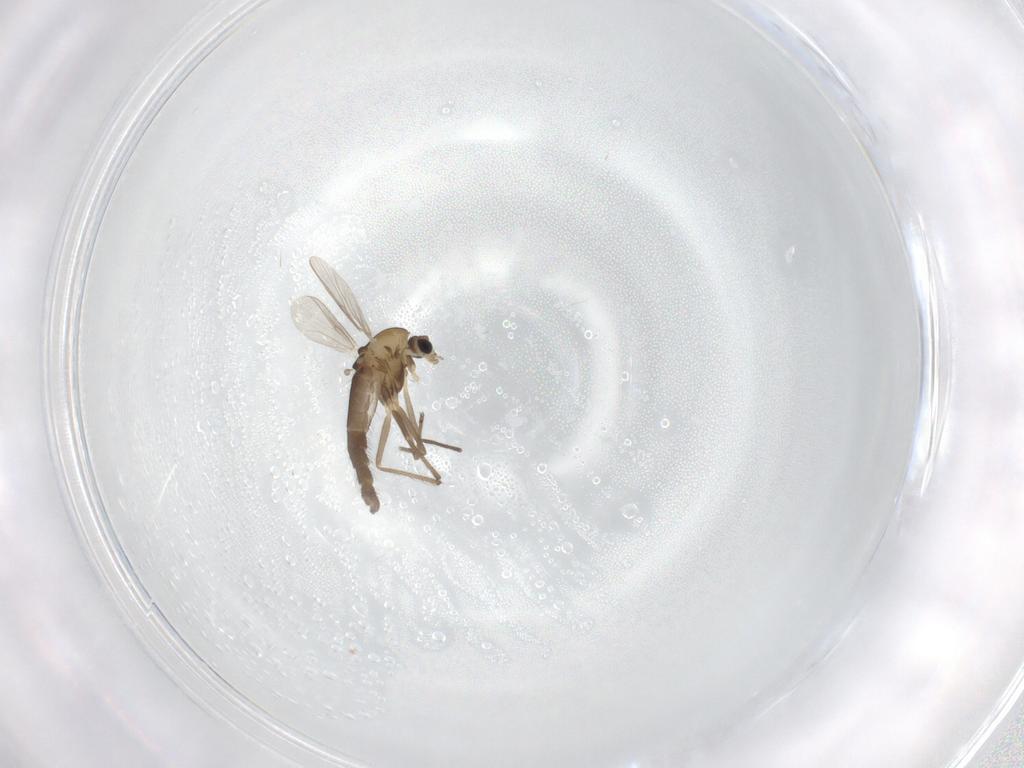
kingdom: Animalia
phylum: Arthropoda
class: Insecta
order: Diptera
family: Chironomidae
